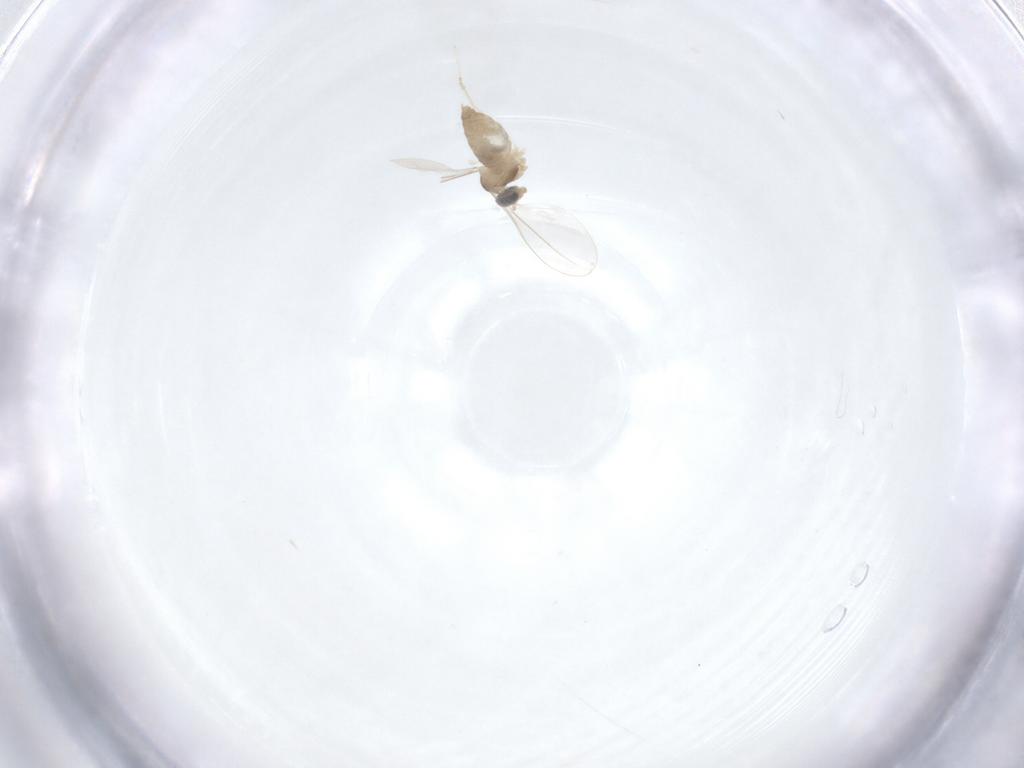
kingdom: Animalia
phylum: Arthropoda
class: Insecta
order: Diptera
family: Cecidomyiidae
